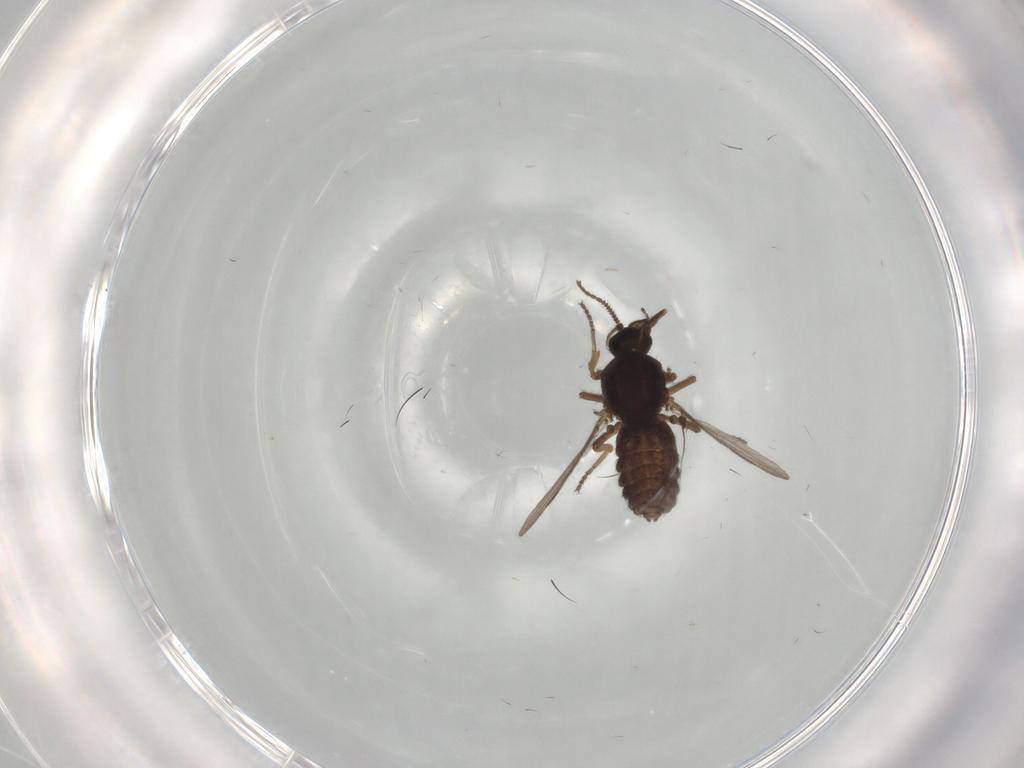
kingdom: Animalia
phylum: Arthropoda
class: Insecta
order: Diptera
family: Ceratopogonidae
